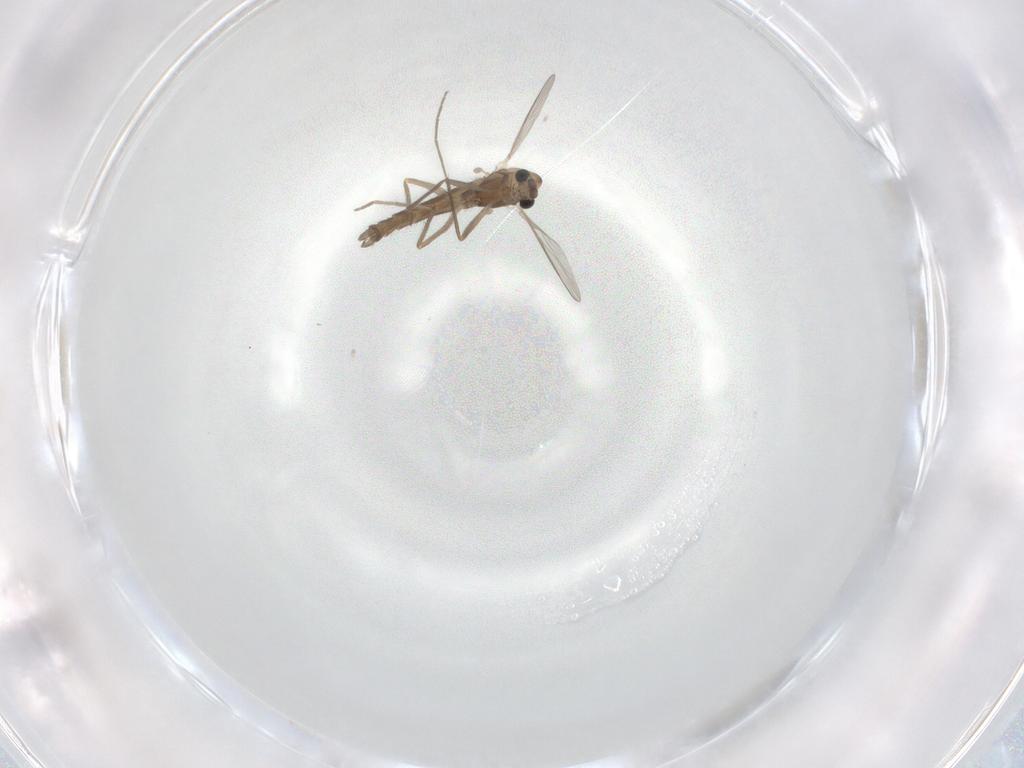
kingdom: Animalia
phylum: Arthropoda
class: Insecta
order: Diptera
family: Chironomidae
